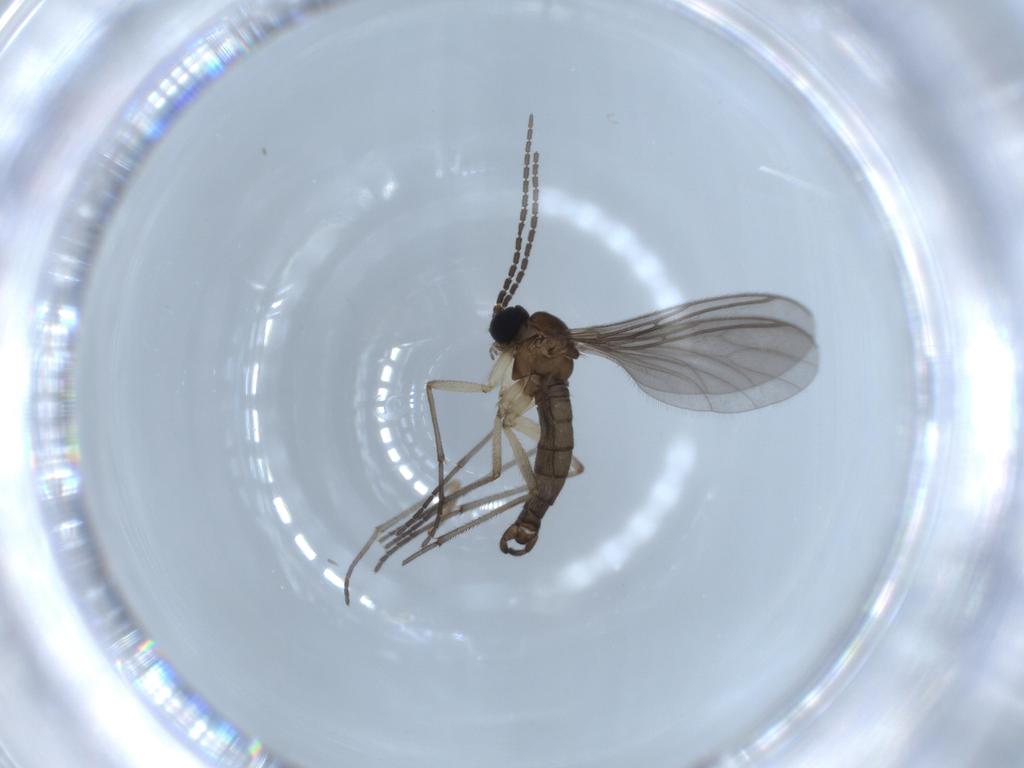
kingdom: Animalia
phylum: Arthropoda
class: Insecta
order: Diptera
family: Sciaridae
